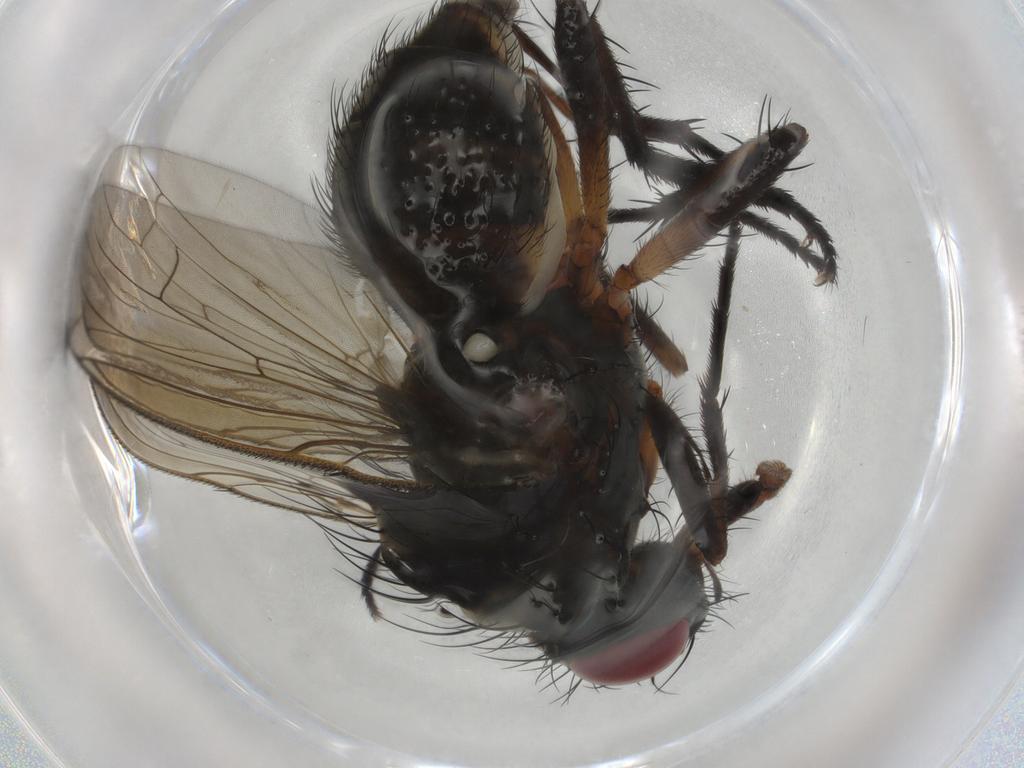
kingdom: Animalia
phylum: Arthropoda
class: Insecta
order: Diptera
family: Anthomyiidae
